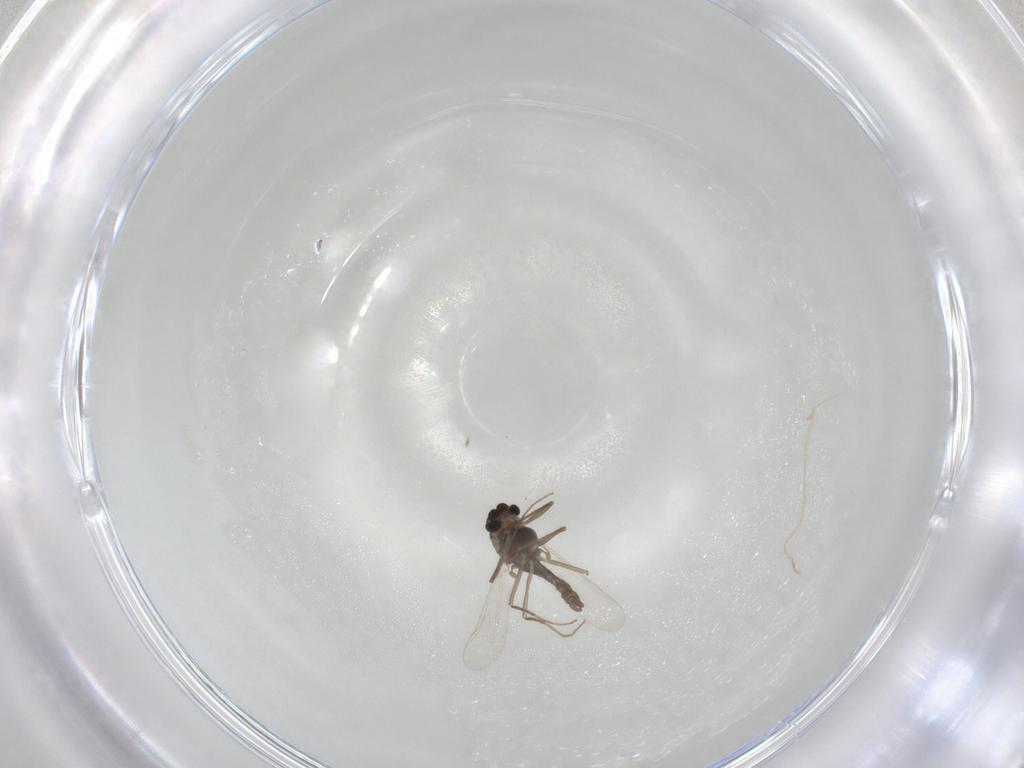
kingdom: Animalia
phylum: Arthropoda
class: Insecta
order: Diptera
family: Chironomidae
